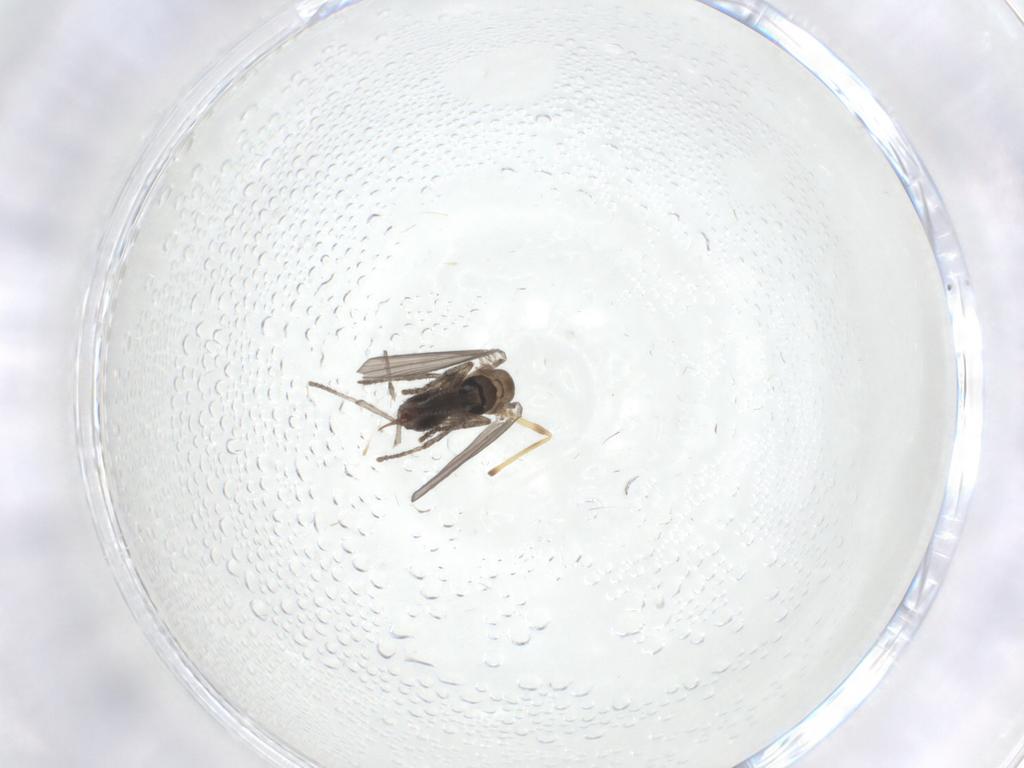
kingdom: Animalia
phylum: Arthropoda
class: Insecta
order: Diptera
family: Psychodidae
